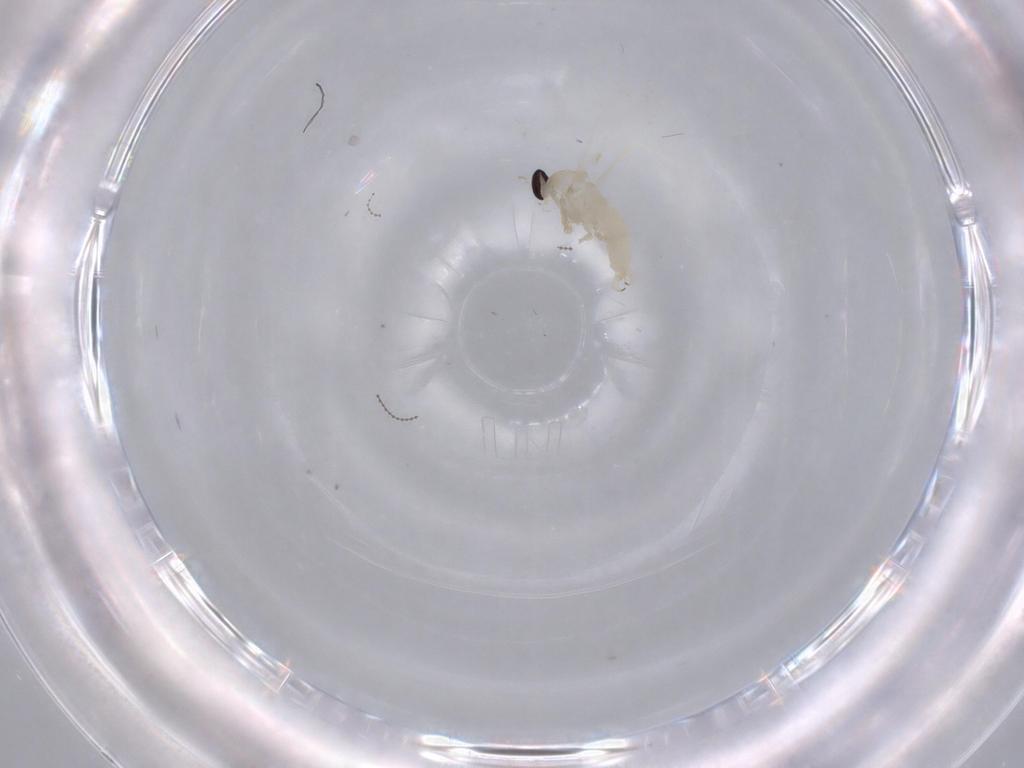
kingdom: Animalia
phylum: Arthropoda
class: Insecta
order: Diptera
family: Cecidomyiidae
